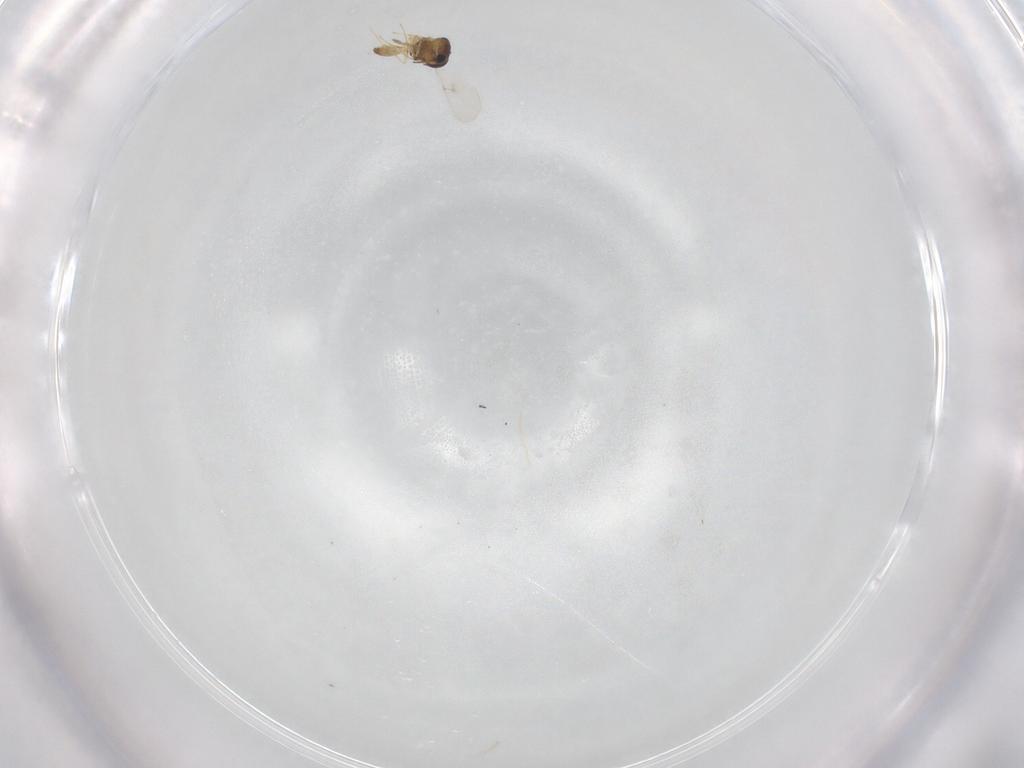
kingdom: Animalia
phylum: Arthropoda
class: Insecta
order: Hymenoptera
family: Scelionidae
